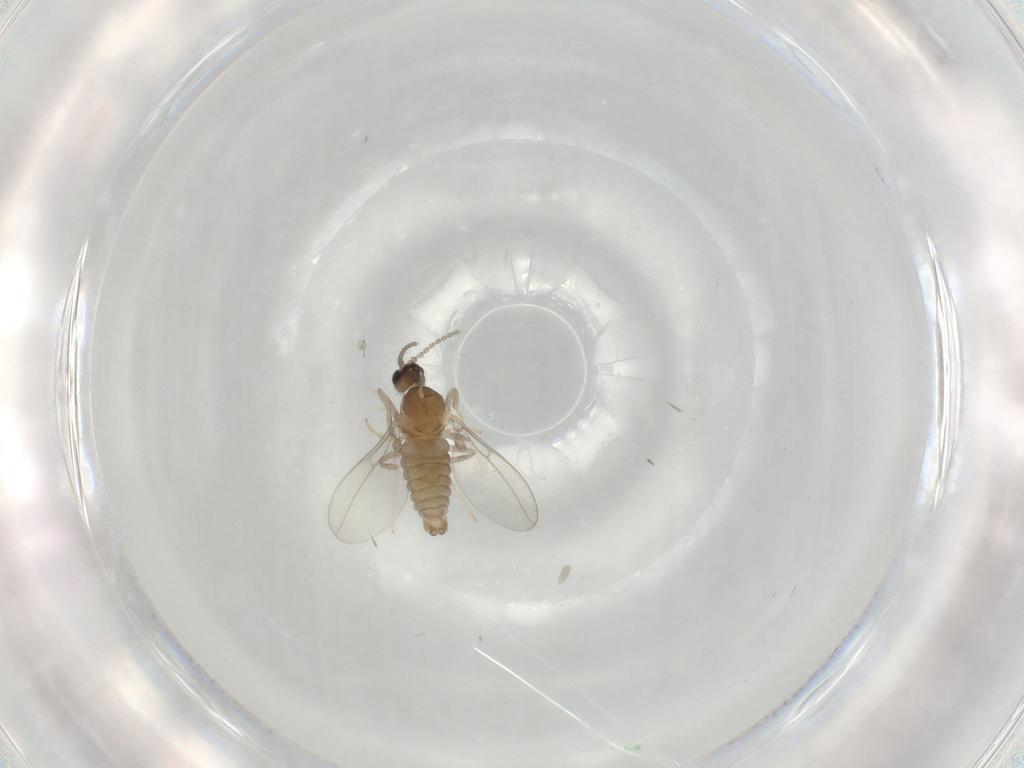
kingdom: Animalia
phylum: Arthropoda
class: Insecta
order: Diptera
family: Cecidomyiidae
